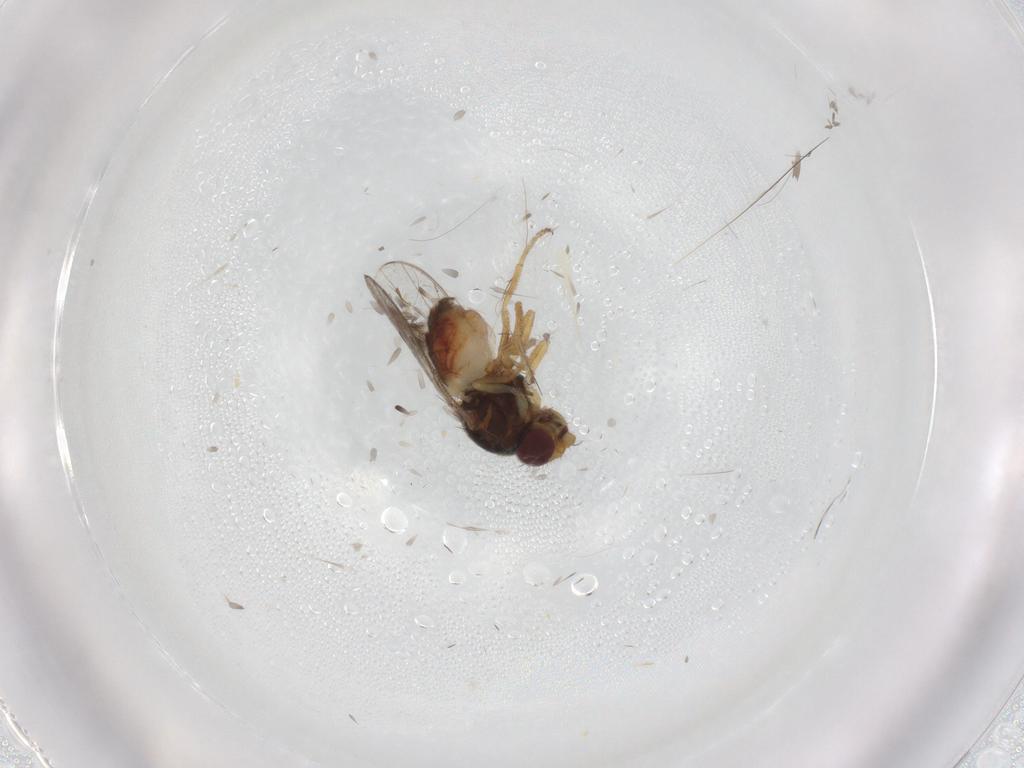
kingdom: Animalia
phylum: Arthropoda
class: Insecta
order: Diptera
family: Chloropidae
